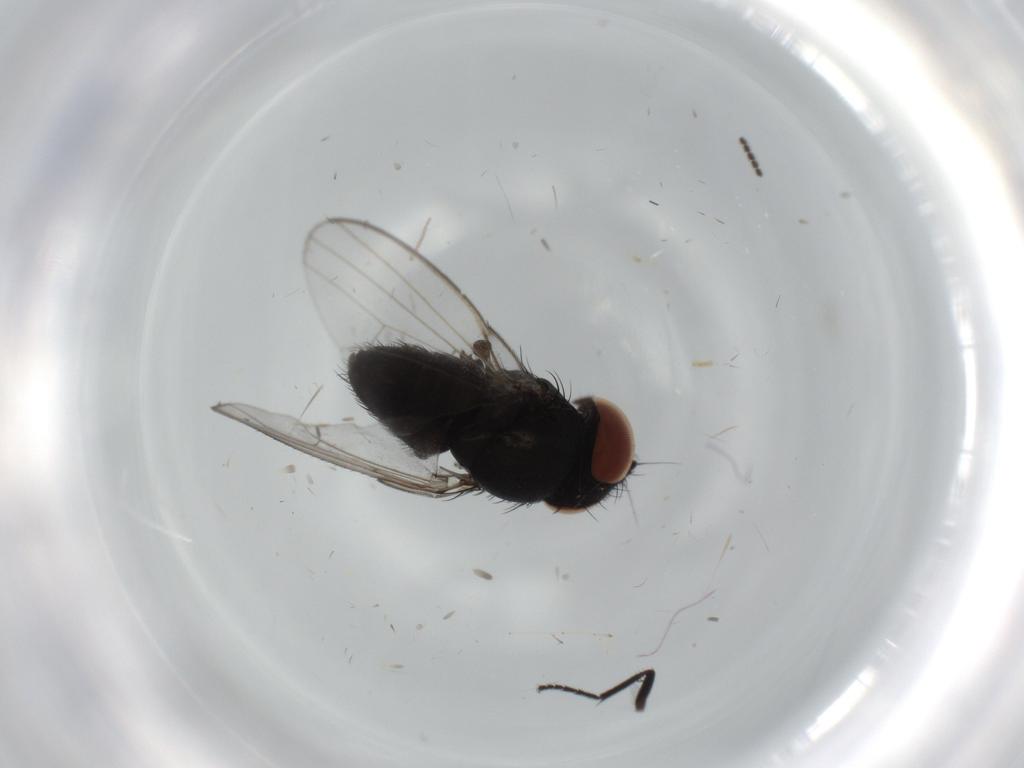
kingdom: Animalia
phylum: Arthropoda
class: Insecta
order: Diptera
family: Milichiidae
